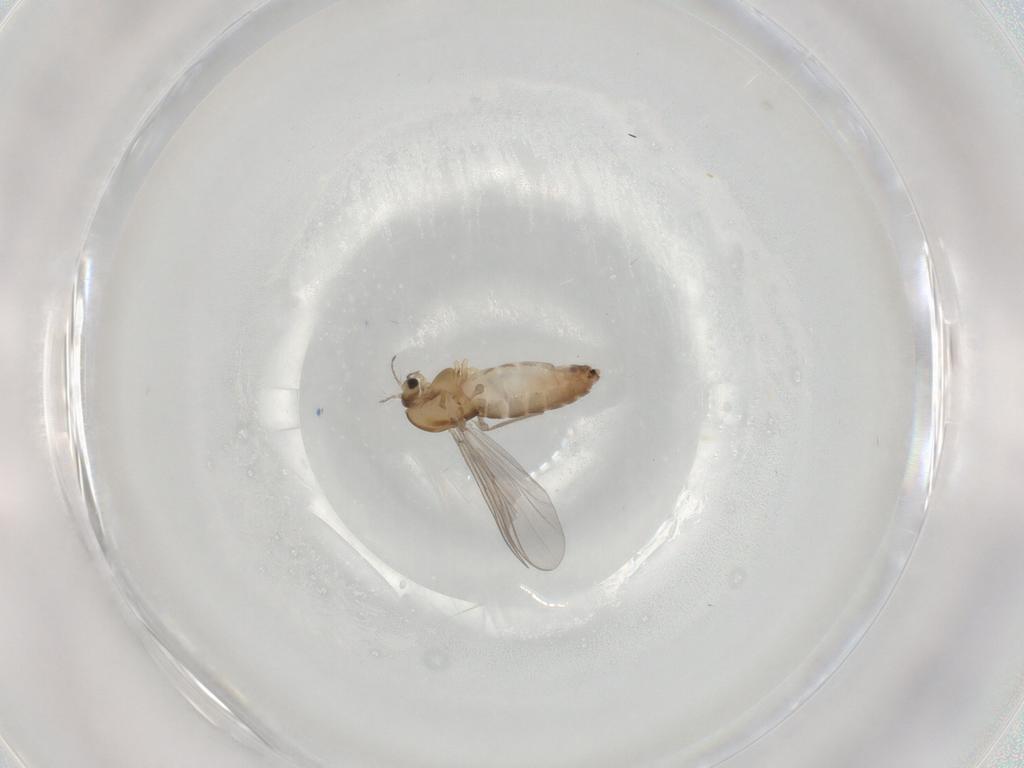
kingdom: Animalia
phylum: Arthropoda
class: Insecta
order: Diptera
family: Chironomidae
